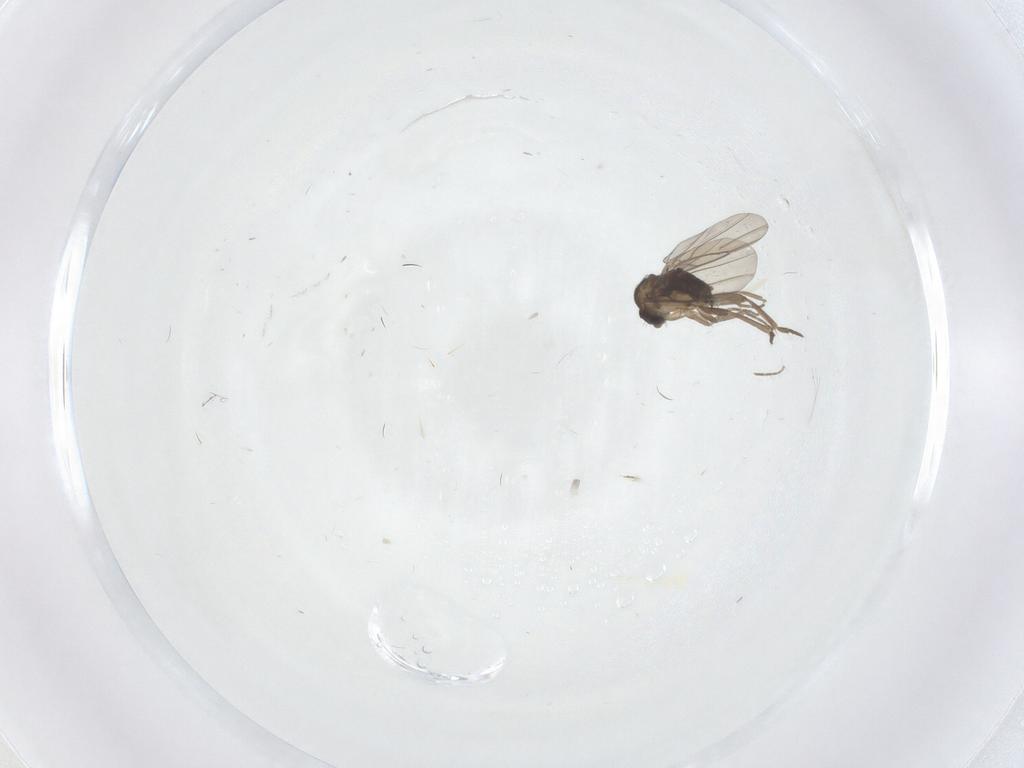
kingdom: Animalia
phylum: Arthropoda
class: Insecta
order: Diptera
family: Phoridae
